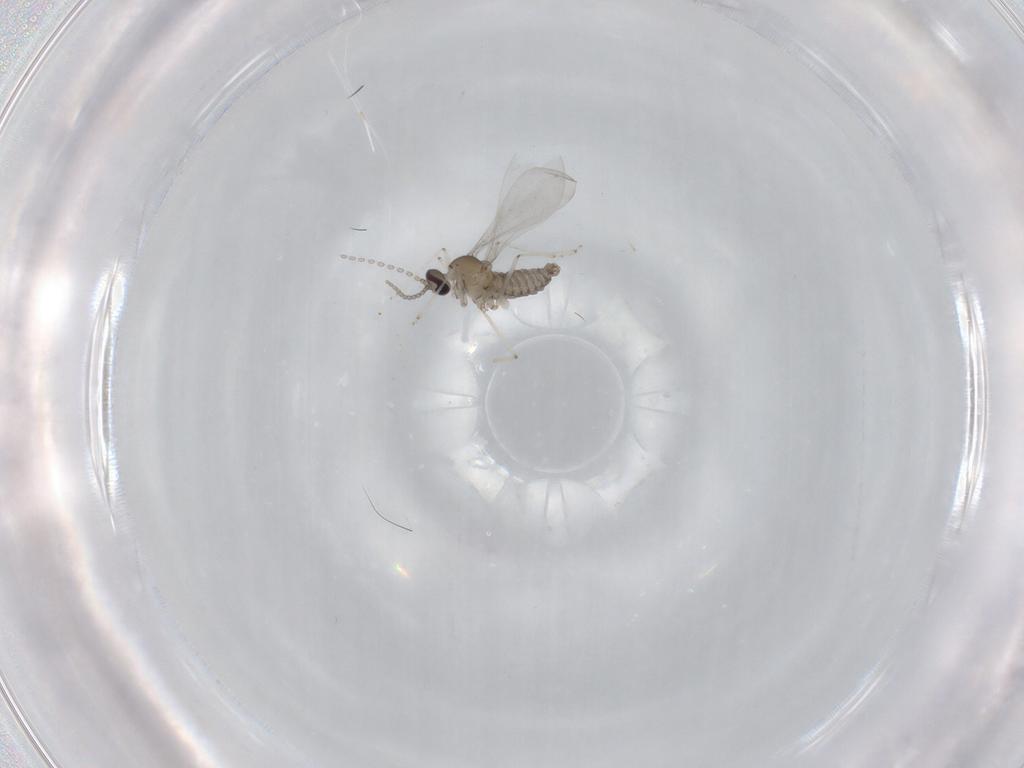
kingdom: Animalia
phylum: Arthropoda
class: Insecta
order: Diptera
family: Cecidomyiidae
